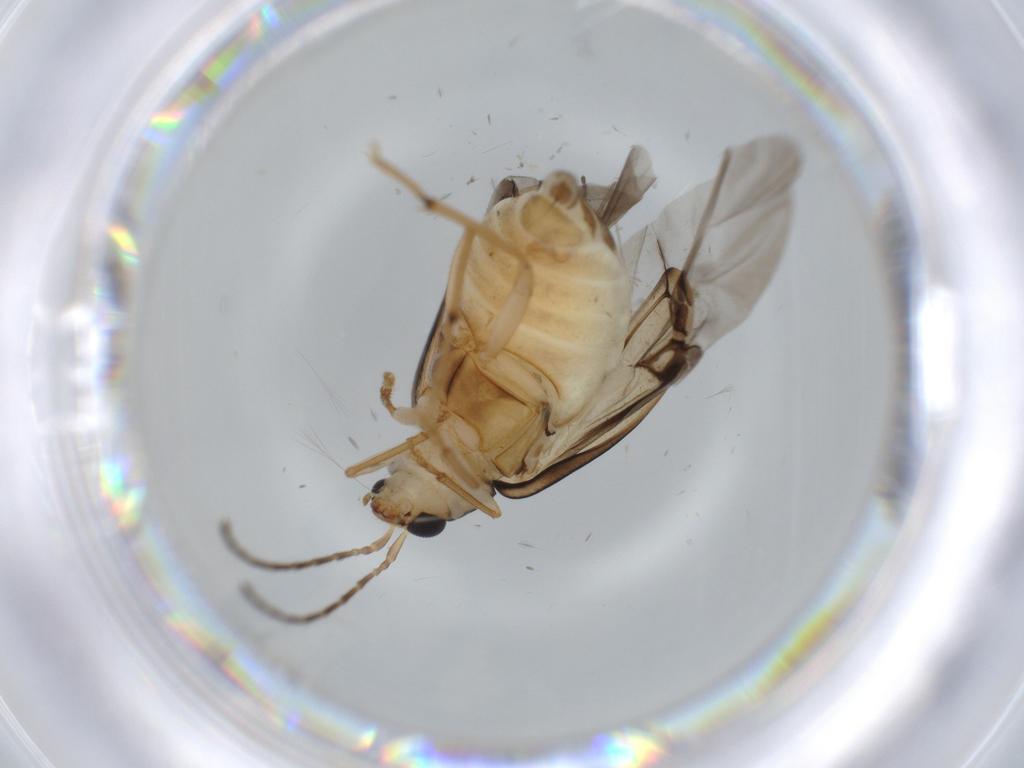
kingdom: Animalia
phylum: Arthropoda
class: Insecta
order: Coleoptera
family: Chrysomelidae
